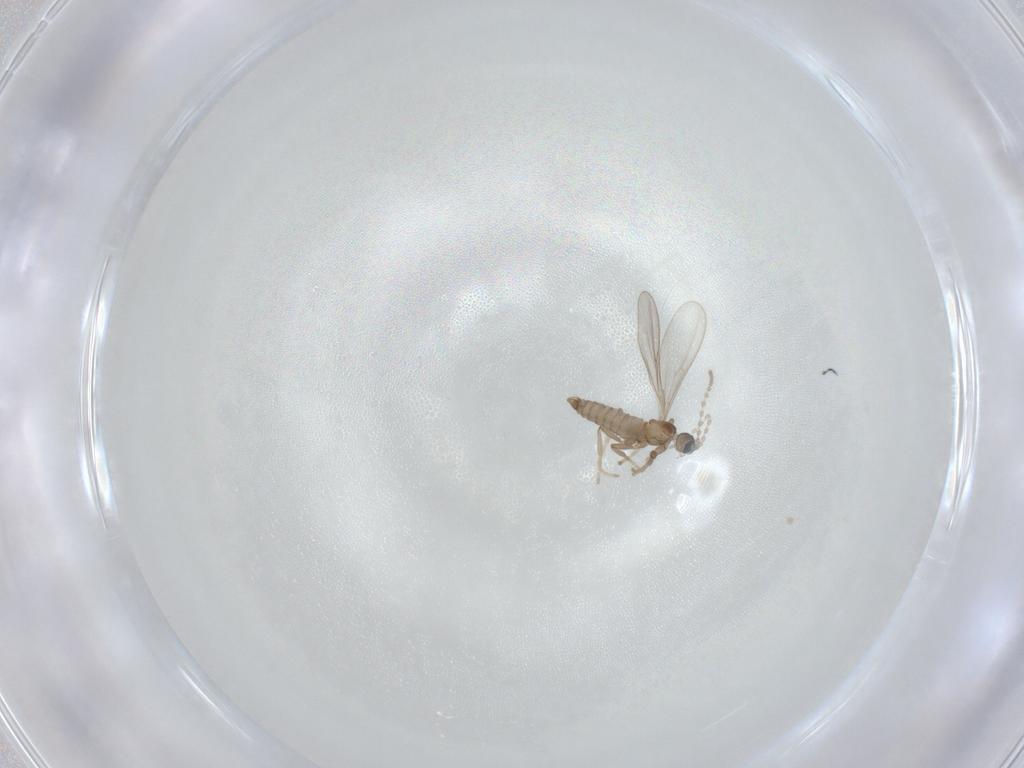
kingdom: Animalia
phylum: Arthropoda
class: Insecta
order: Diptera
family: Cecidomyiidae
